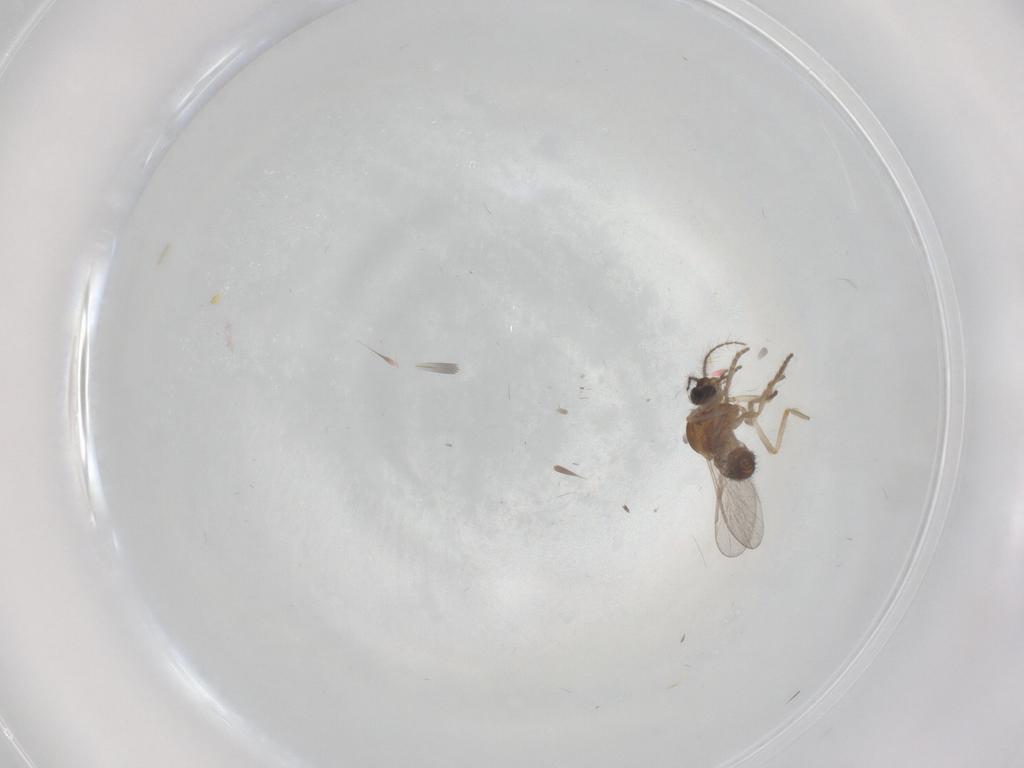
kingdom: Animalia
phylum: Arthropoda
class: Insecta
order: Diptera
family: Ceratopogonidae
